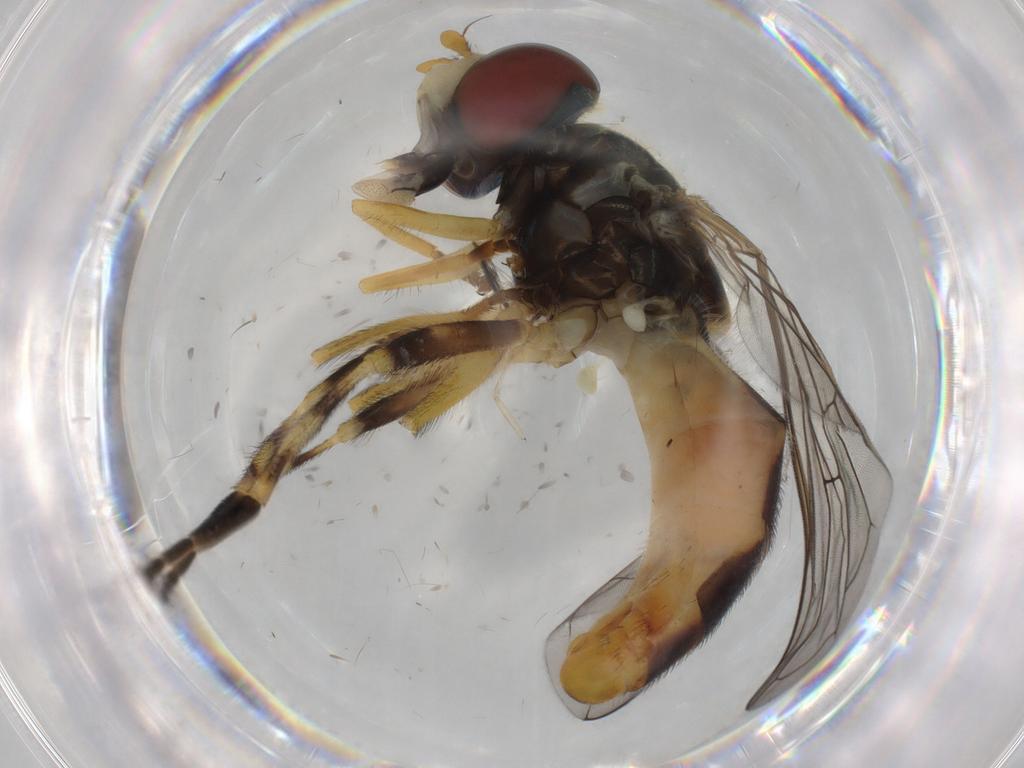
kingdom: Animalia
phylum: Arthropoda
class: Insecta
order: Diptera
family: Syrphidae
